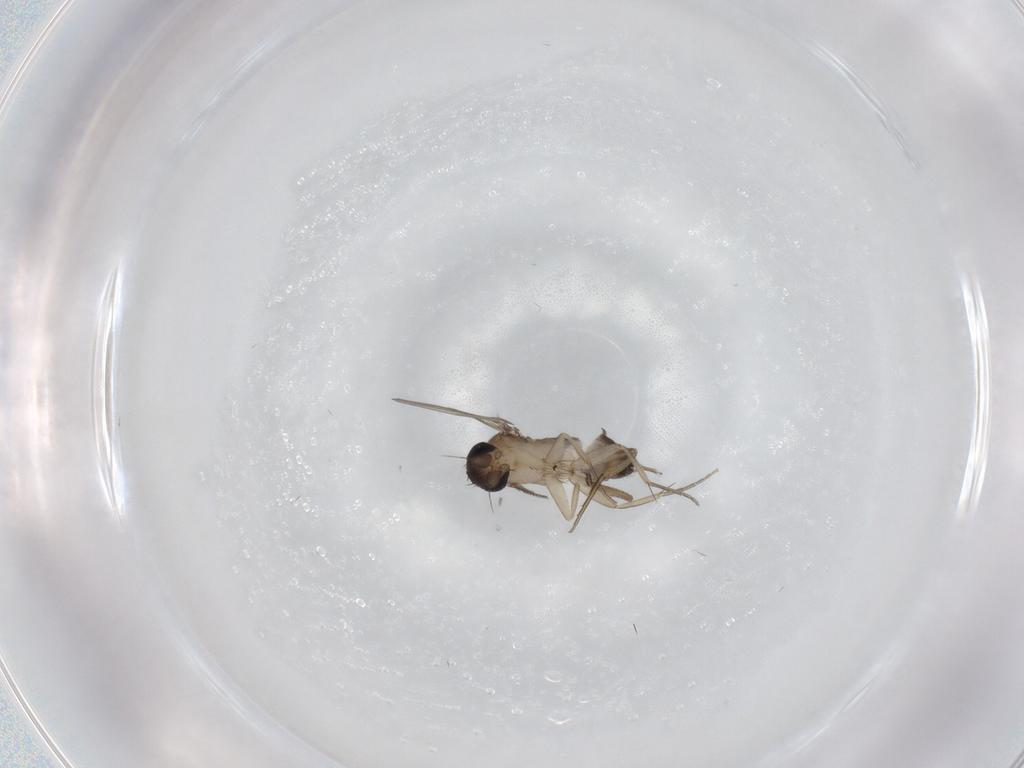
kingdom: Animalia
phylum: Arthropoda
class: Insecta
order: Diptera
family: Phoridae
